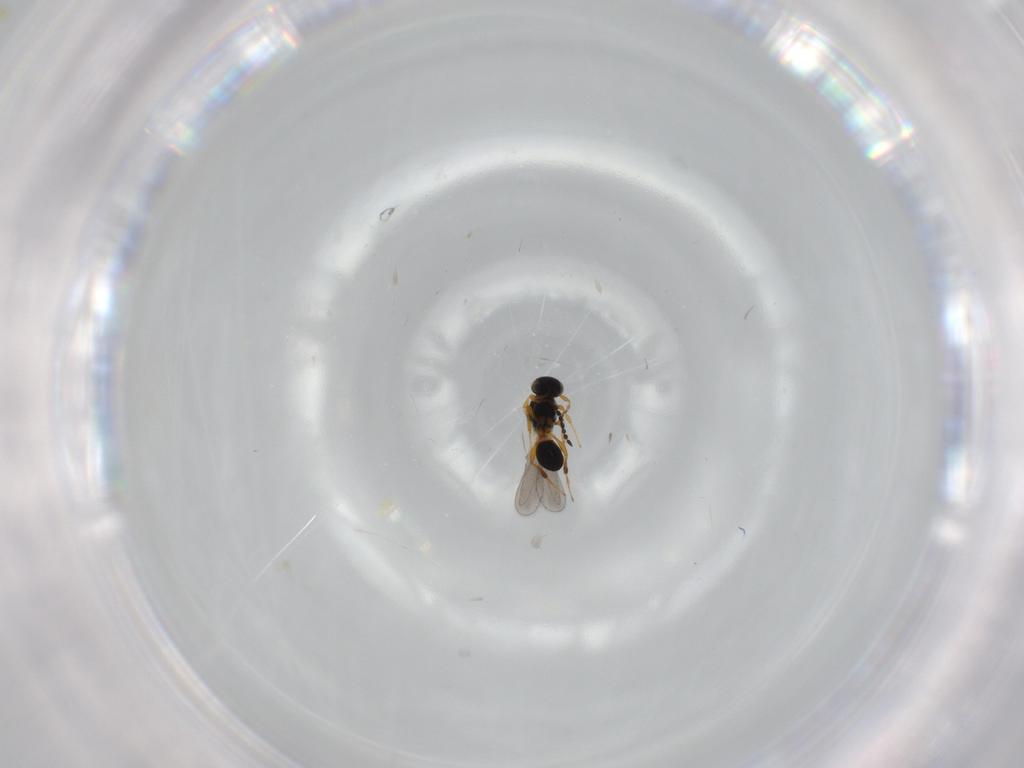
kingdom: Animalia
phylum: Arthropoda
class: Insecta
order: Hymenoptera
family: Platygastridae
